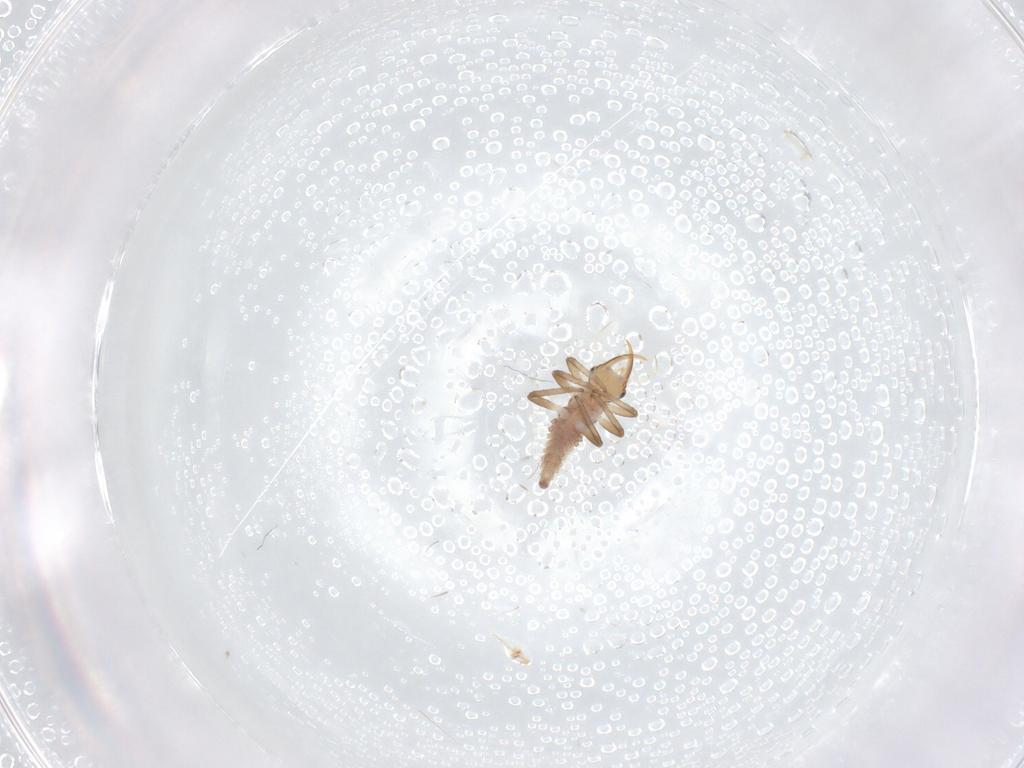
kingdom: Animalia
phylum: Arthropoda
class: Insecta
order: Neuroptera
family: Chrysopidae
